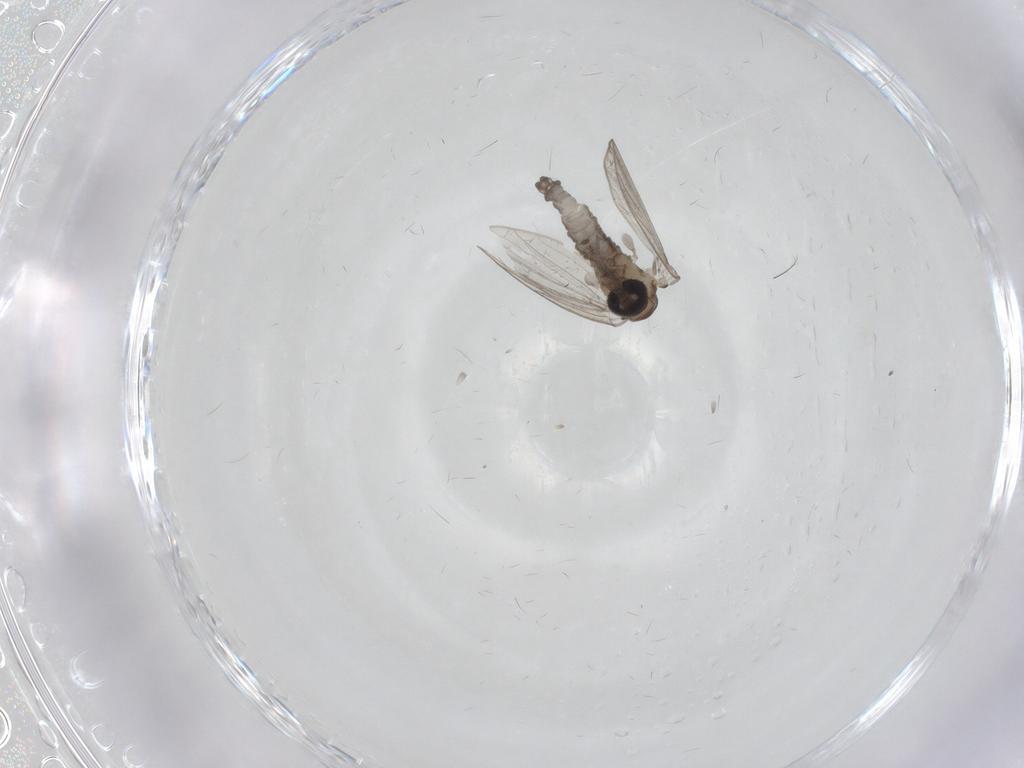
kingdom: Animalia
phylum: Arthropoda
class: Insecta
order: Diptera
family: Psychodidae
